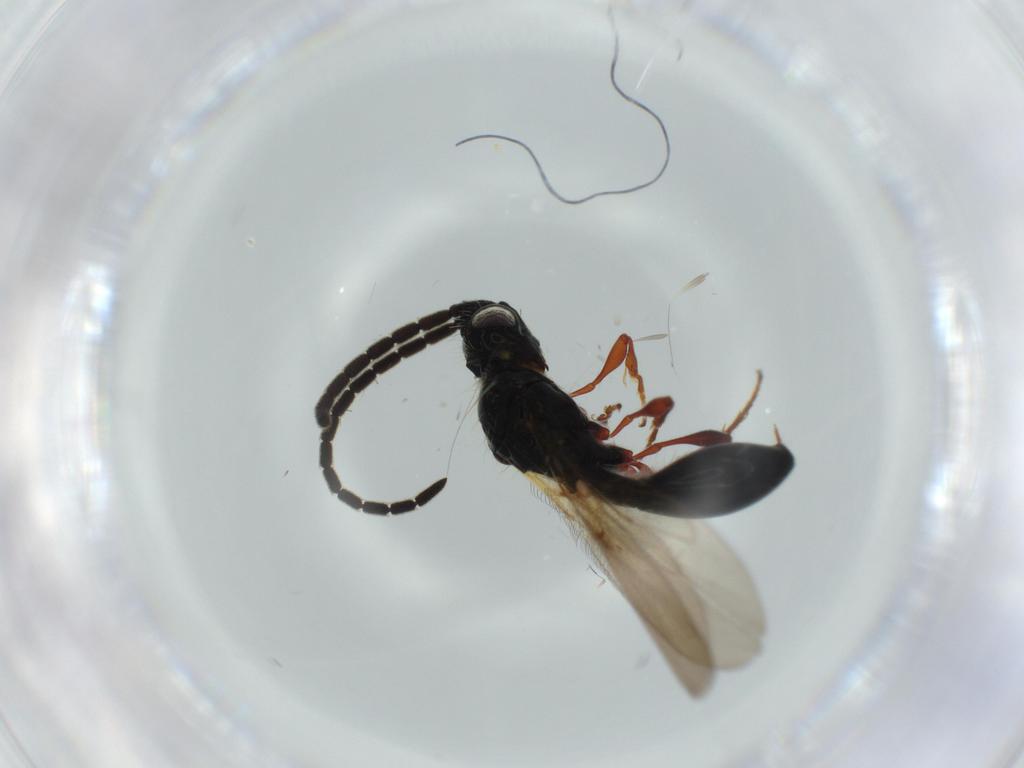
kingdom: Animalia
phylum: Arthropoda
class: Insecta
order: Hymenoptera
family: Diapriidae
